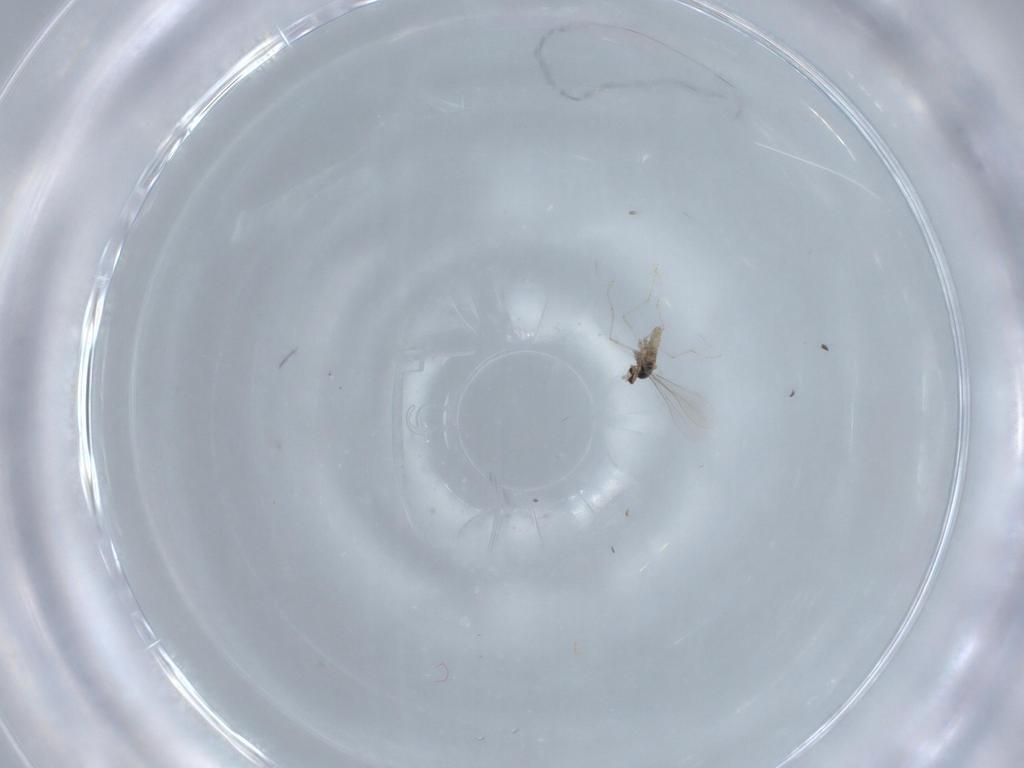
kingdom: Animalia
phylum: Arthropoda
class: Insecta
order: Diptera
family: Cecidomyiidae
